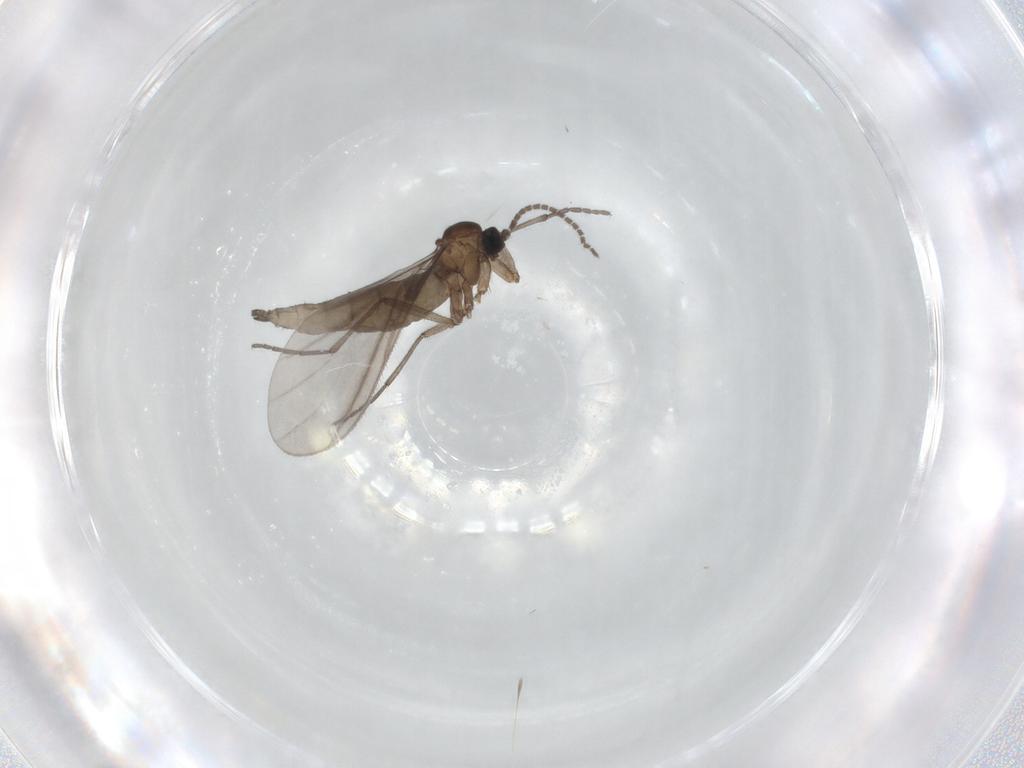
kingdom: Animalia
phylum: Arthropoda
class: Insecta
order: Diptera
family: Sciaridae
